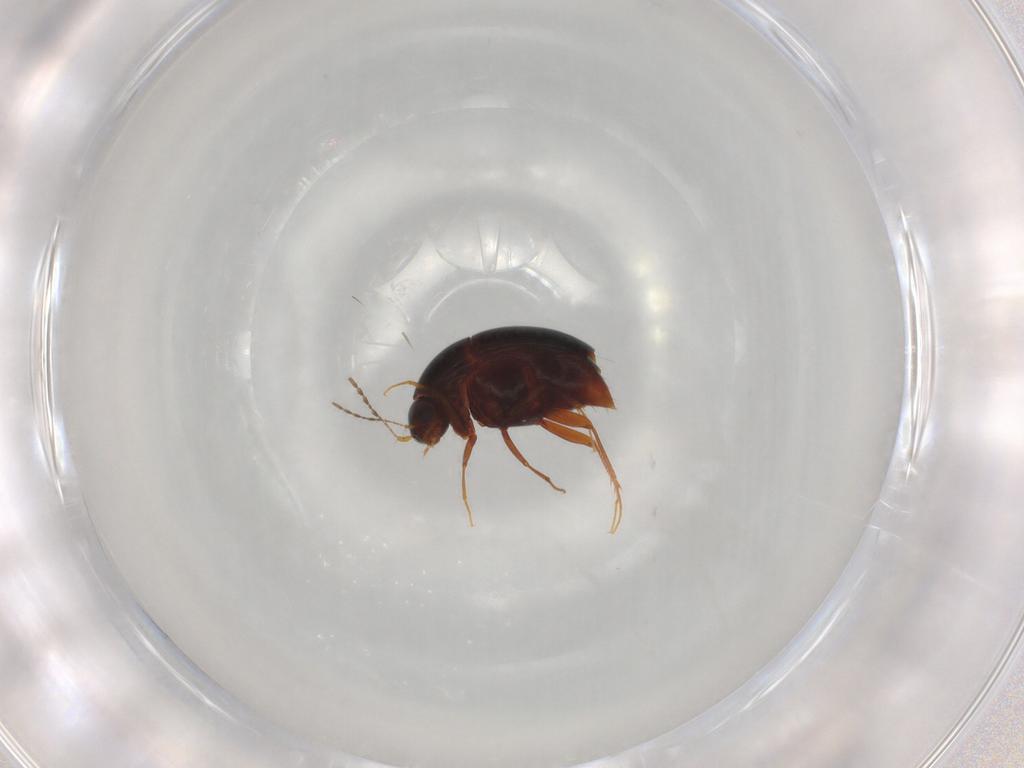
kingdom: Animalia
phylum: Arthropoda
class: Insecta
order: Coleoptera
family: Staphylinidae
